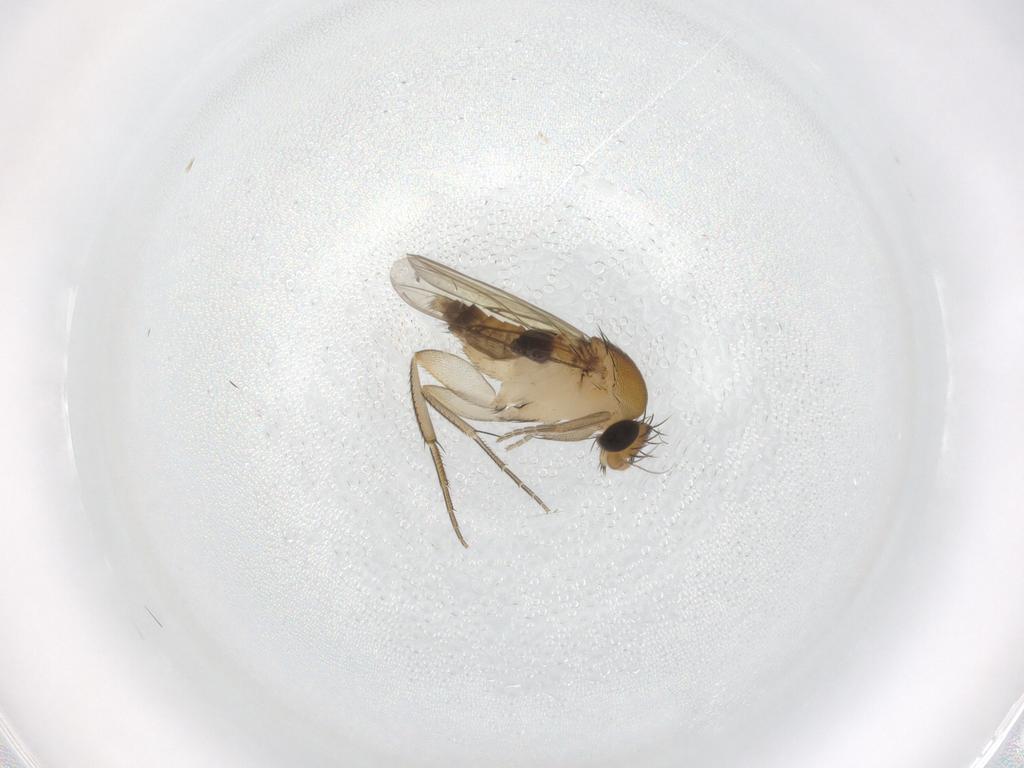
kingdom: Animalia
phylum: Arthropoda
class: Insecta
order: Diptera
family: Phoridae
